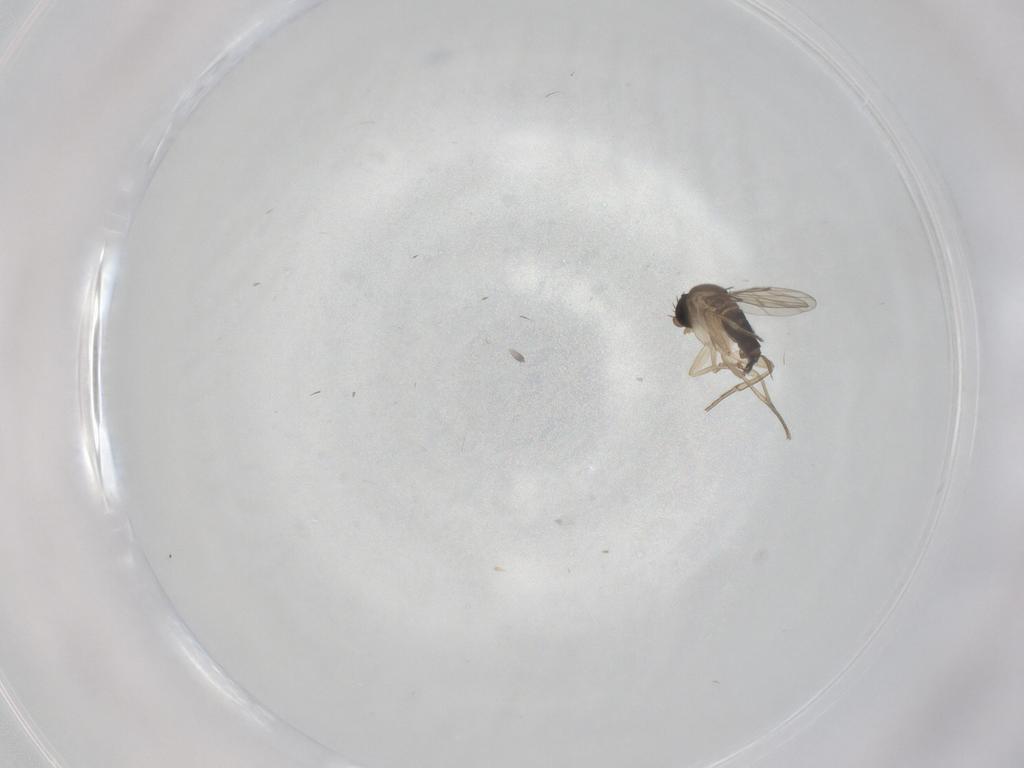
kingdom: Animalia
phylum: Arthropoda
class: Insecta
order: Diptera
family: Phoridae
